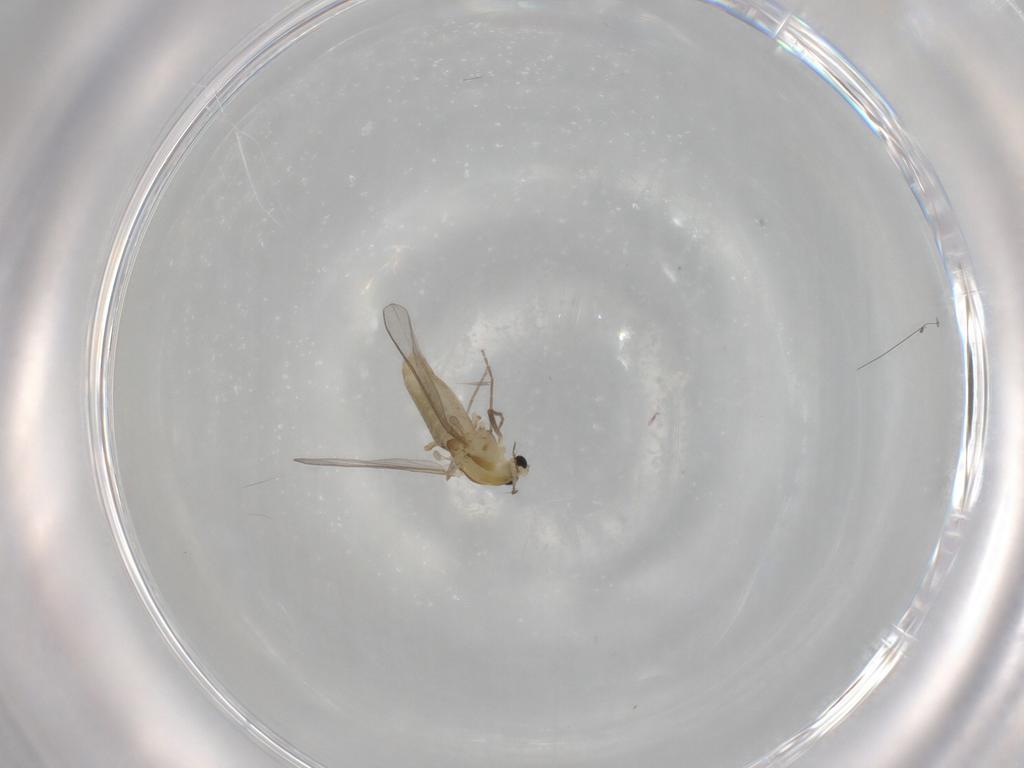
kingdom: Animalia
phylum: Arthropoda
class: Insecta
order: Diptera
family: Chironomidae
